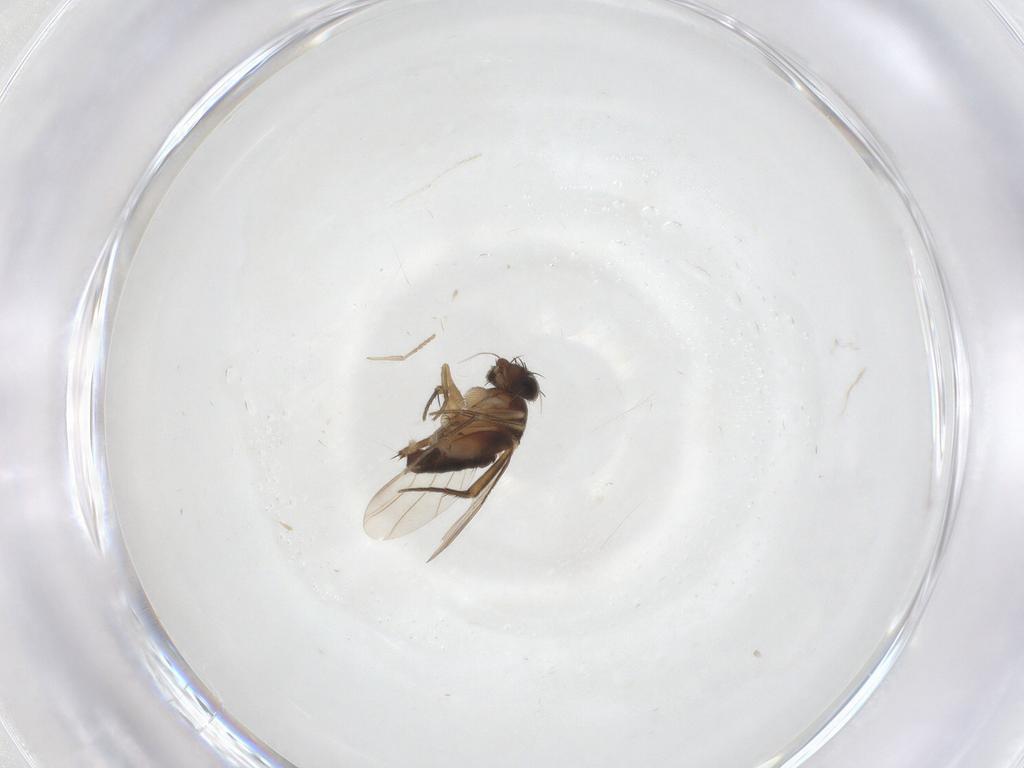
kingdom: Animalia
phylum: Arthropoda
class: Insecta
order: Diptera
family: Phoridae
